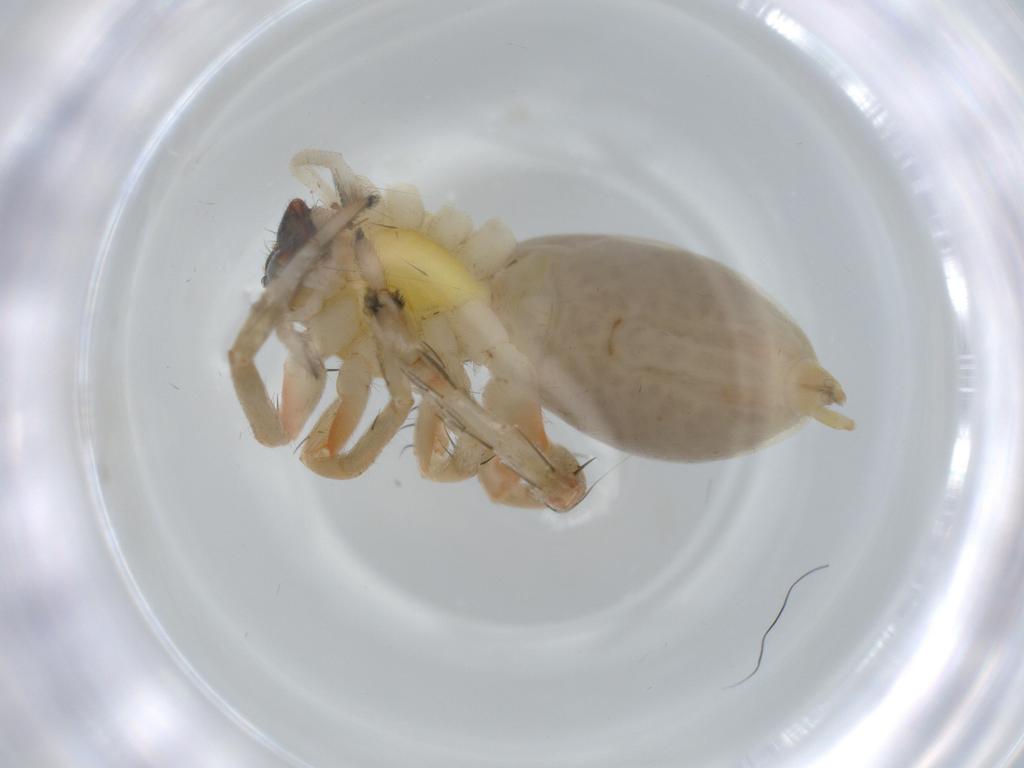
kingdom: Animalia
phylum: Arthropoda
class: Arachnida
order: Araneae
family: Anyphaenidae
